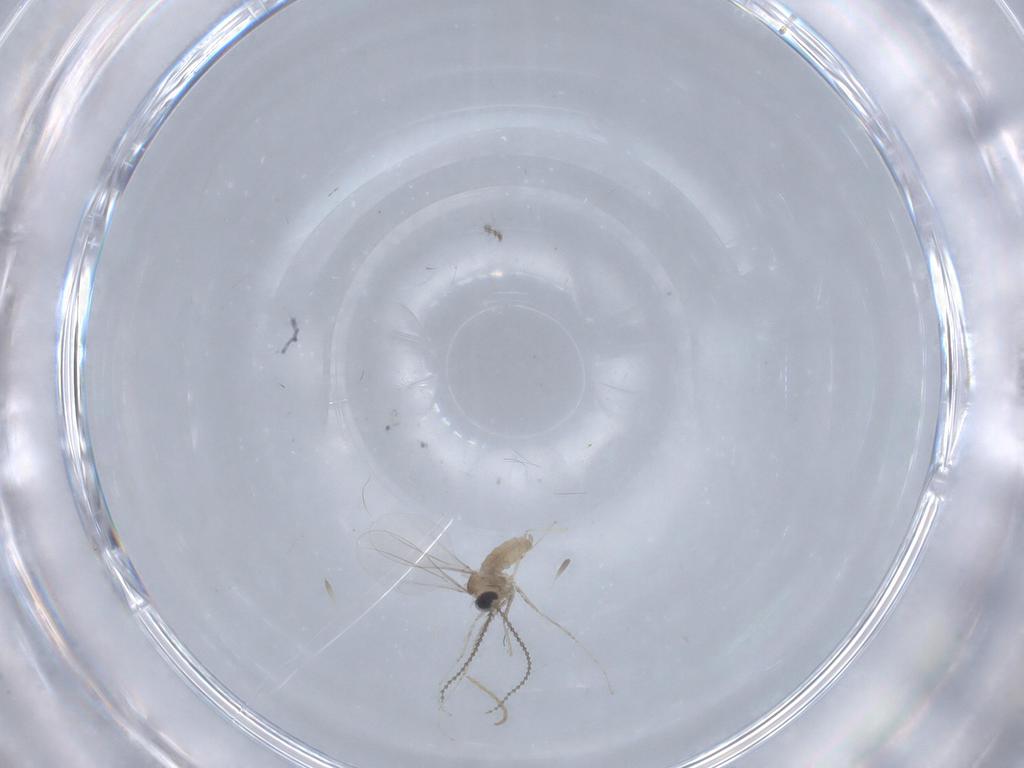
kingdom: Animalia
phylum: Arthropoda
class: Insecta
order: Diptera
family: Cecidomyiidae
